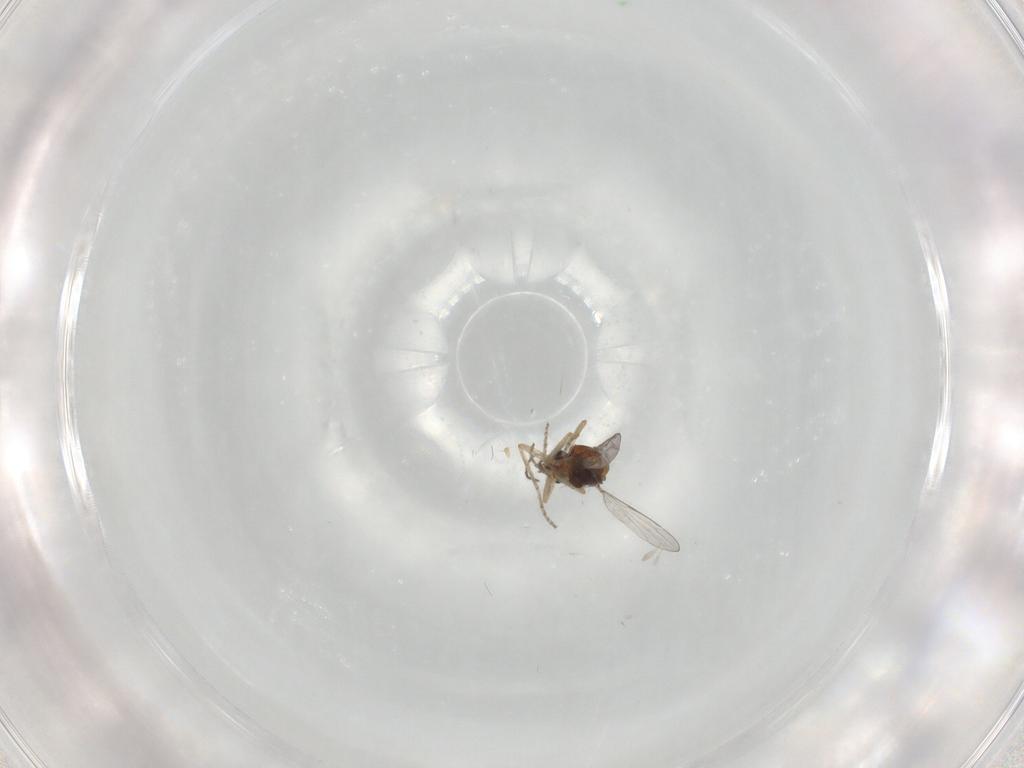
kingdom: Animalia
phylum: Arthropoda
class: Insecta
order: Diptera
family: Ceratopogonidae
